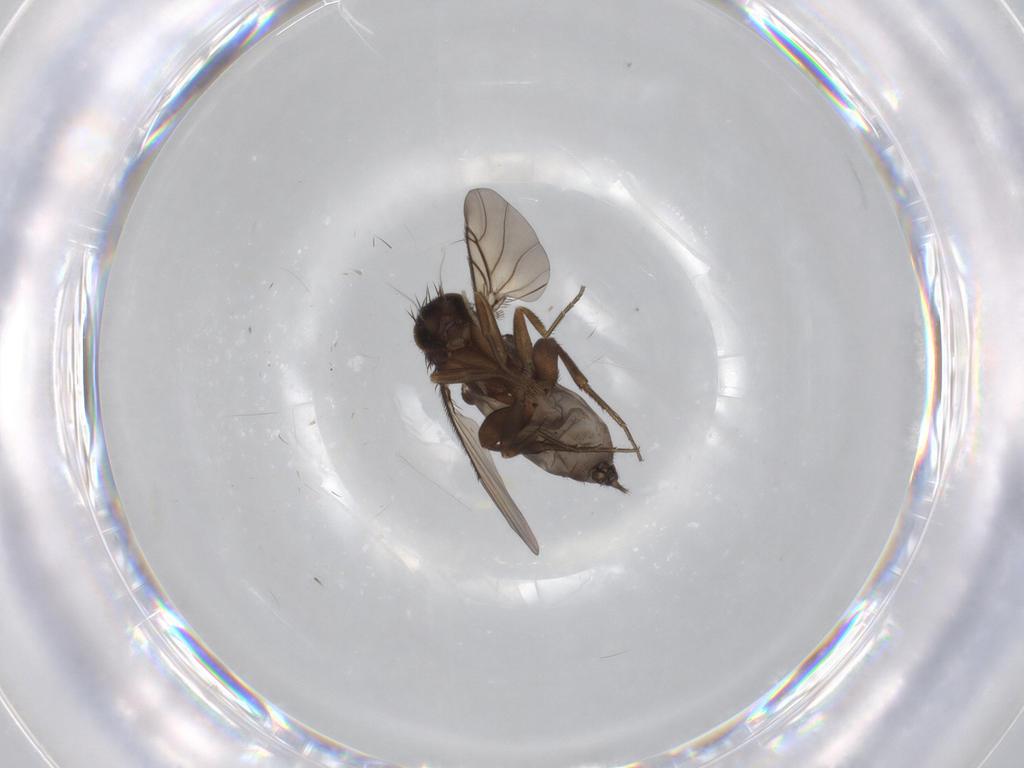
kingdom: Animalia
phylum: Arthropoda
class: Insecta
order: Diptera
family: Phoridae
